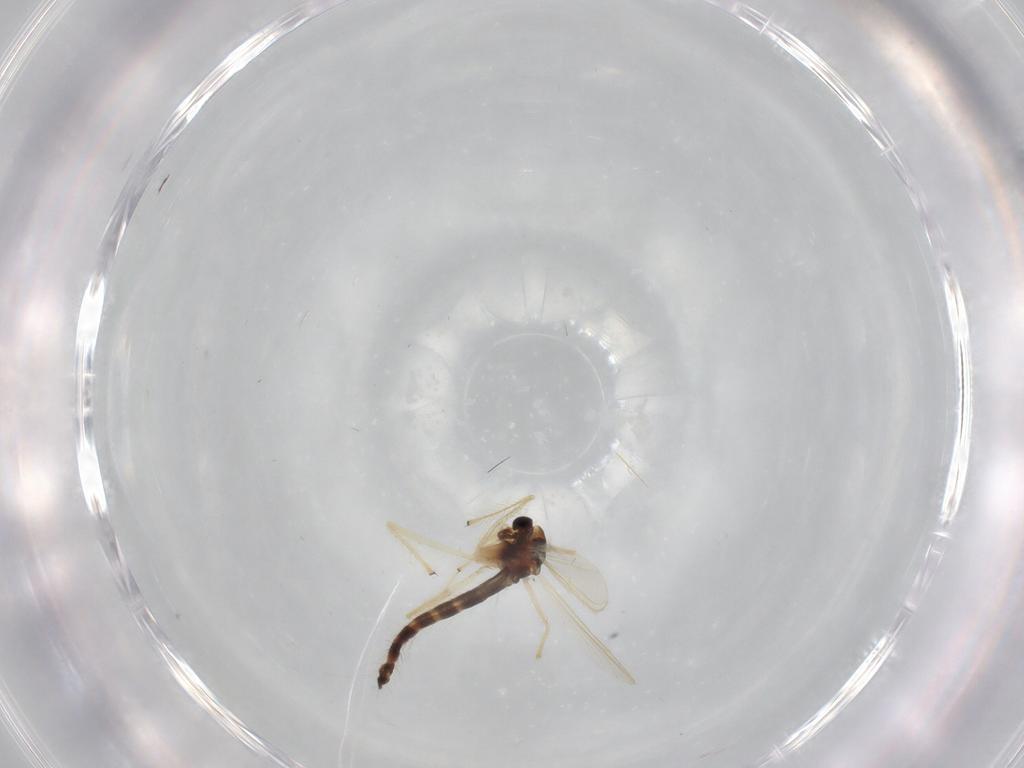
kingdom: Animalia
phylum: Arthropoda
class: Insecta
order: Diptera
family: Chironomidae
